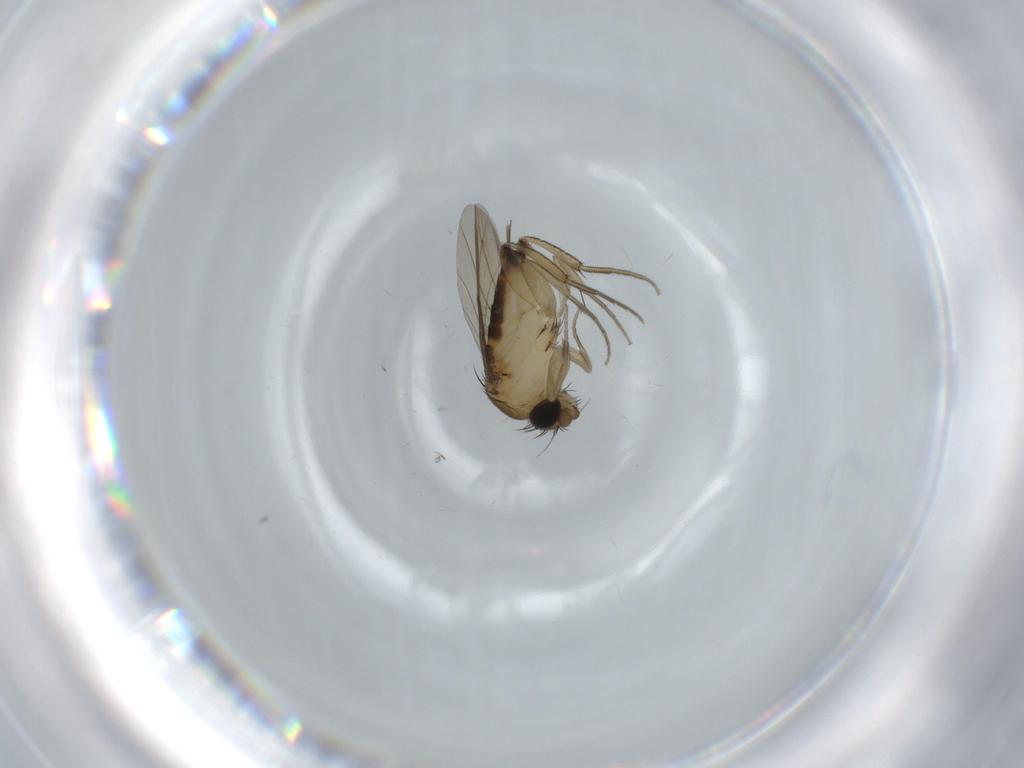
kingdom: Animalia
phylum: Arthropoda
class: Insecta
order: Diptera
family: Phoridae
